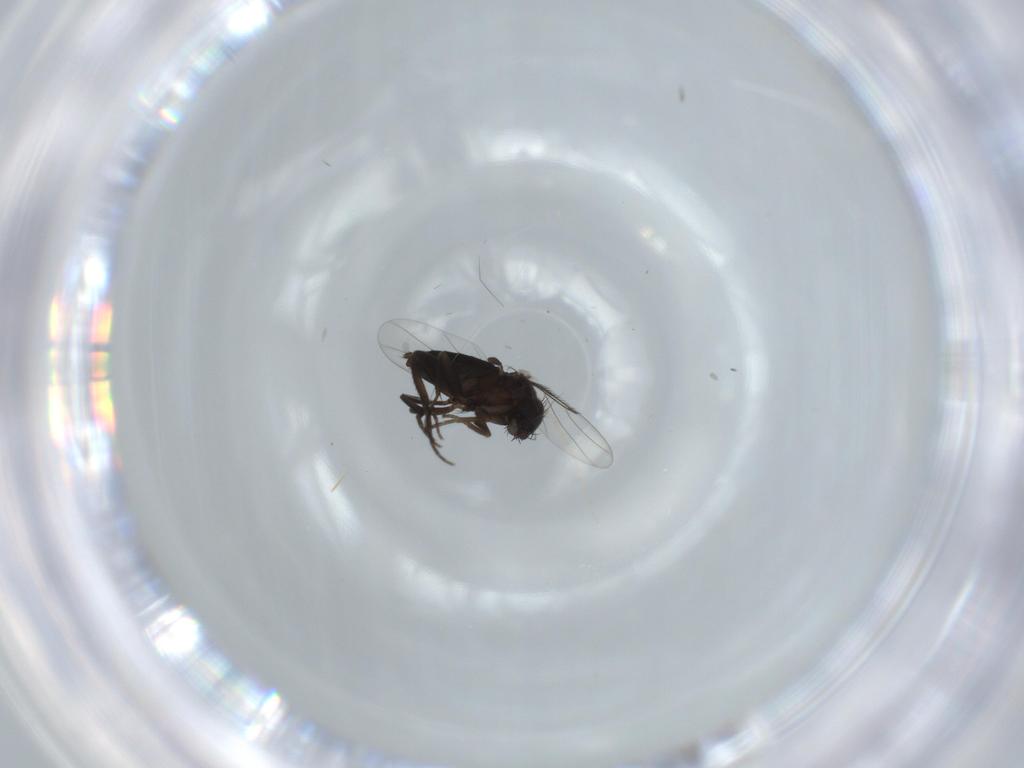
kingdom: Animalia
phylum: Arthropoda
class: Insecta
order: Diptera
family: Phoridae
